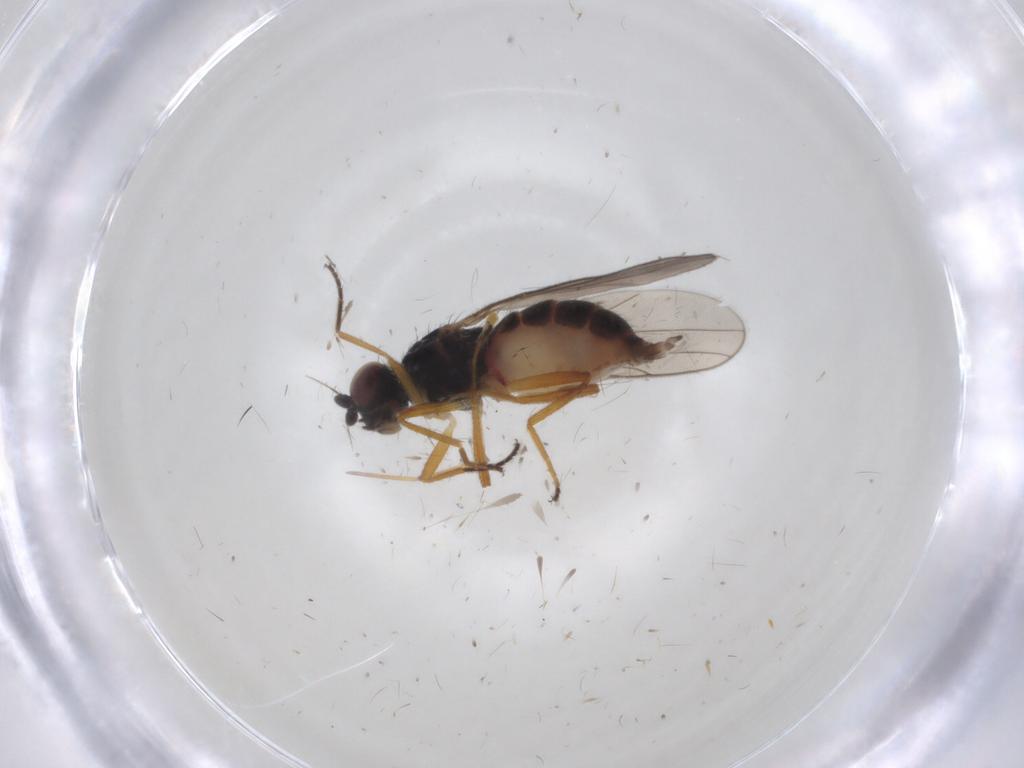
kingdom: Animalia
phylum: Arthropoda
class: Insecta
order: Diptera
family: Chloropidae
